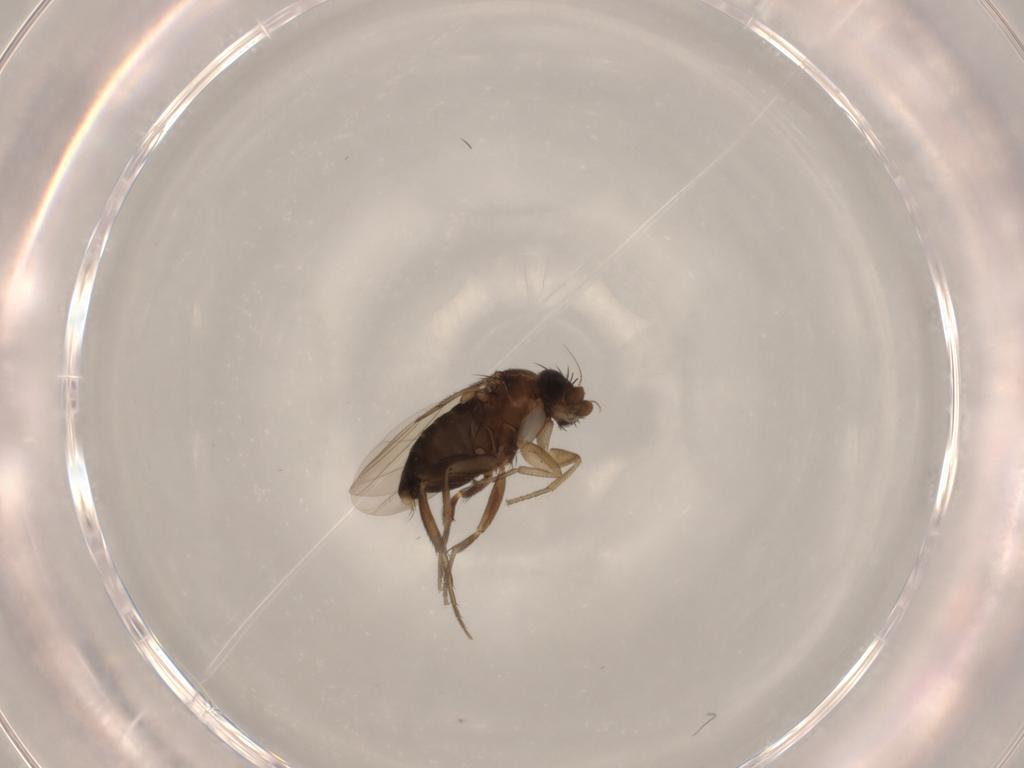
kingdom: Animalia
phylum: Arthropoda
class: Insecta
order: Diptera
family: Phoridae
